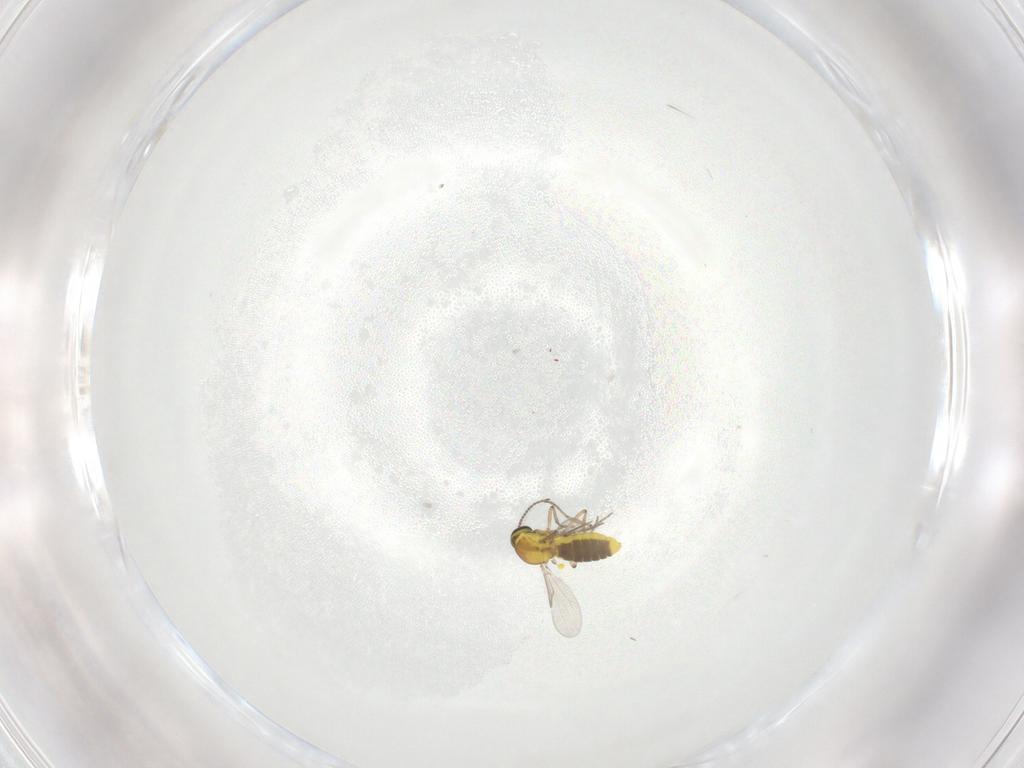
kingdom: Animalia
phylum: Arthropoda
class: Insecta
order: Diptera
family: Ceratopogonidae
